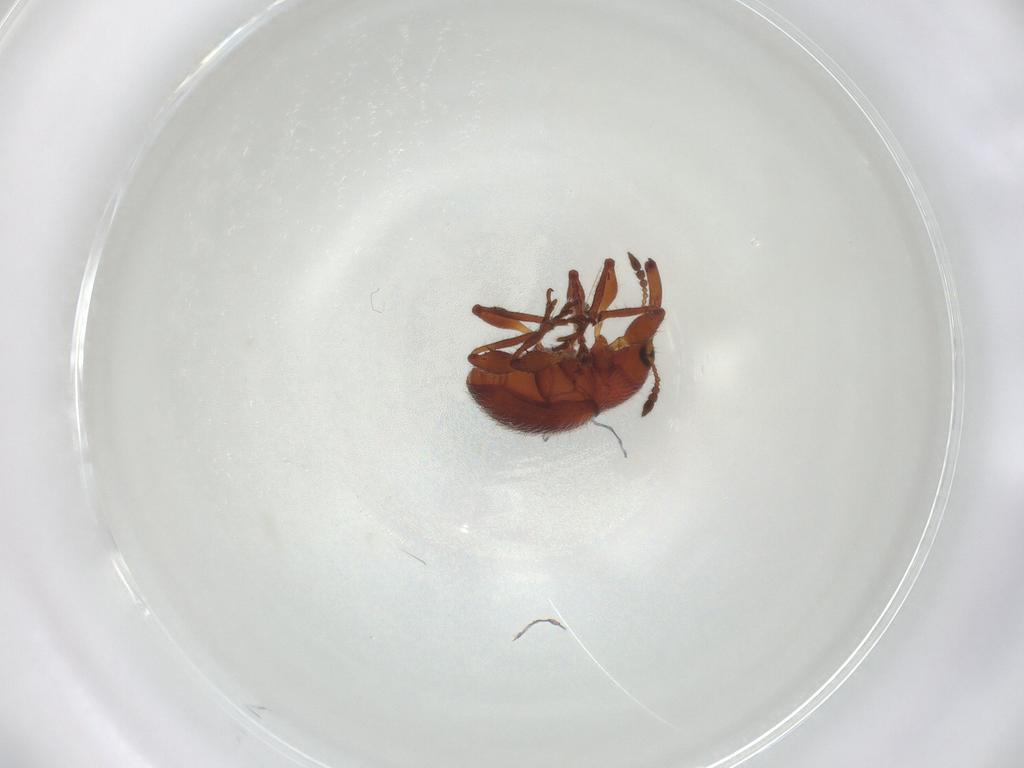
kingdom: Animalia
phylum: Arthropoda
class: Insecta
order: Coleoptera
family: Brentidae
